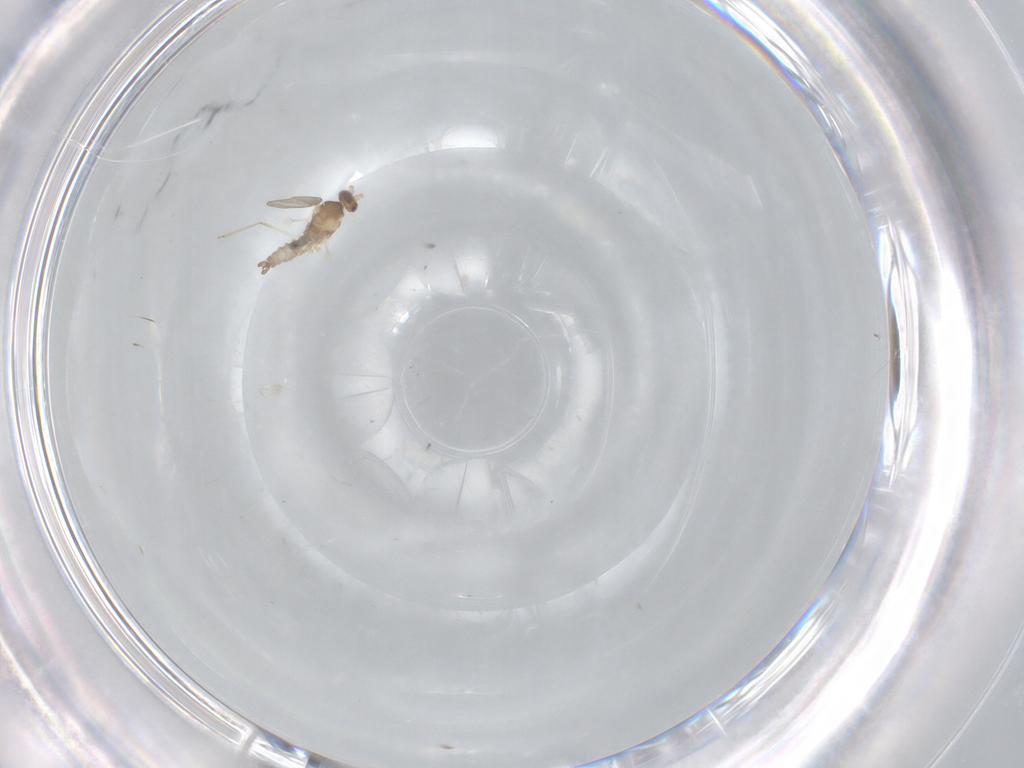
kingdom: Animalia
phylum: Arthropoda
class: Insecta
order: Diptera
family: Cecidomyiidae
